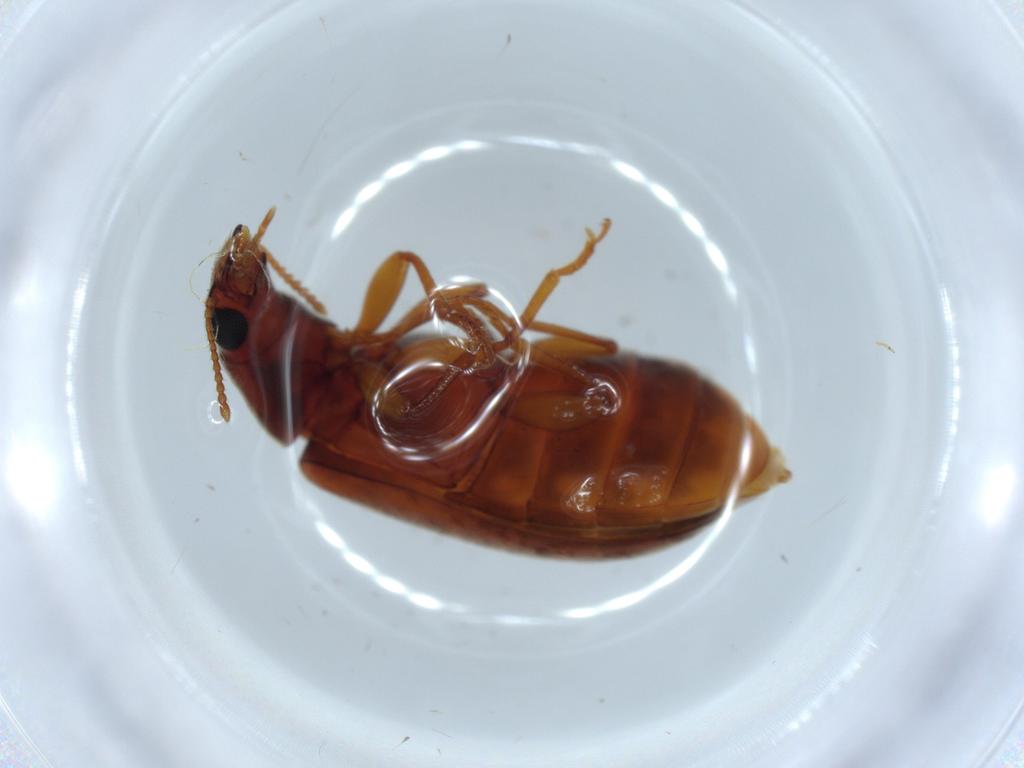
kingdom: Animalia
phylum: Arthropoda
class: Insecta
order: Coleoptera
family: Mycteridae
